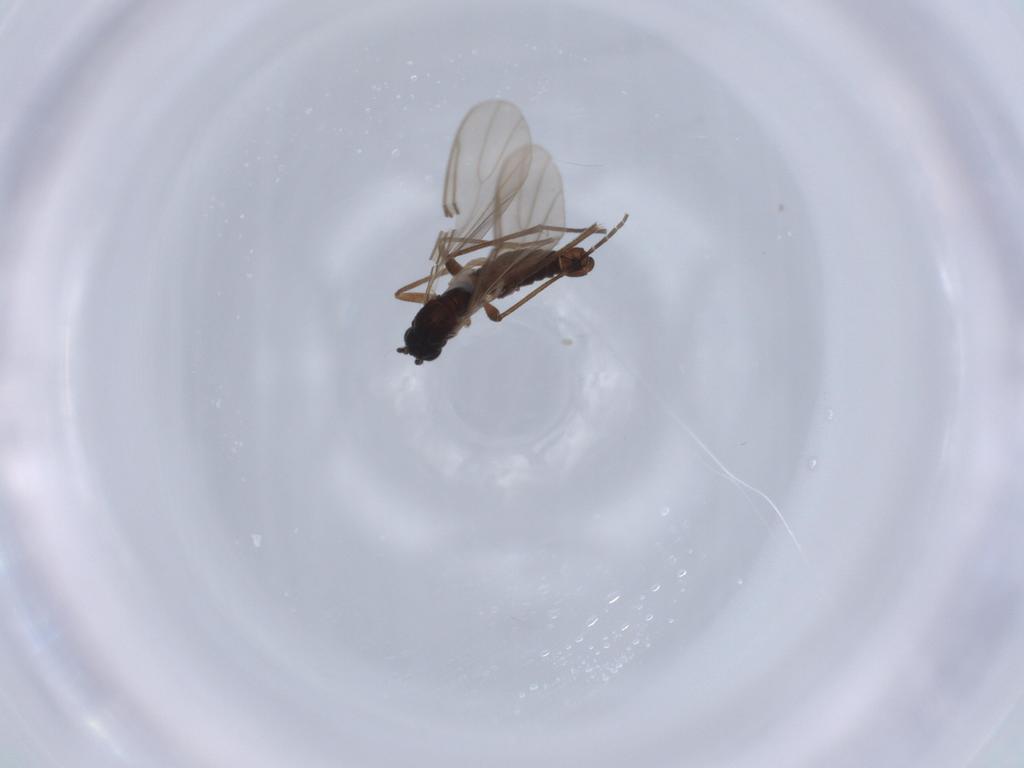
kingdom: Animalia
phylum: Arthropoda
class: Insecta
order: Diptera
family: Sciaridae
